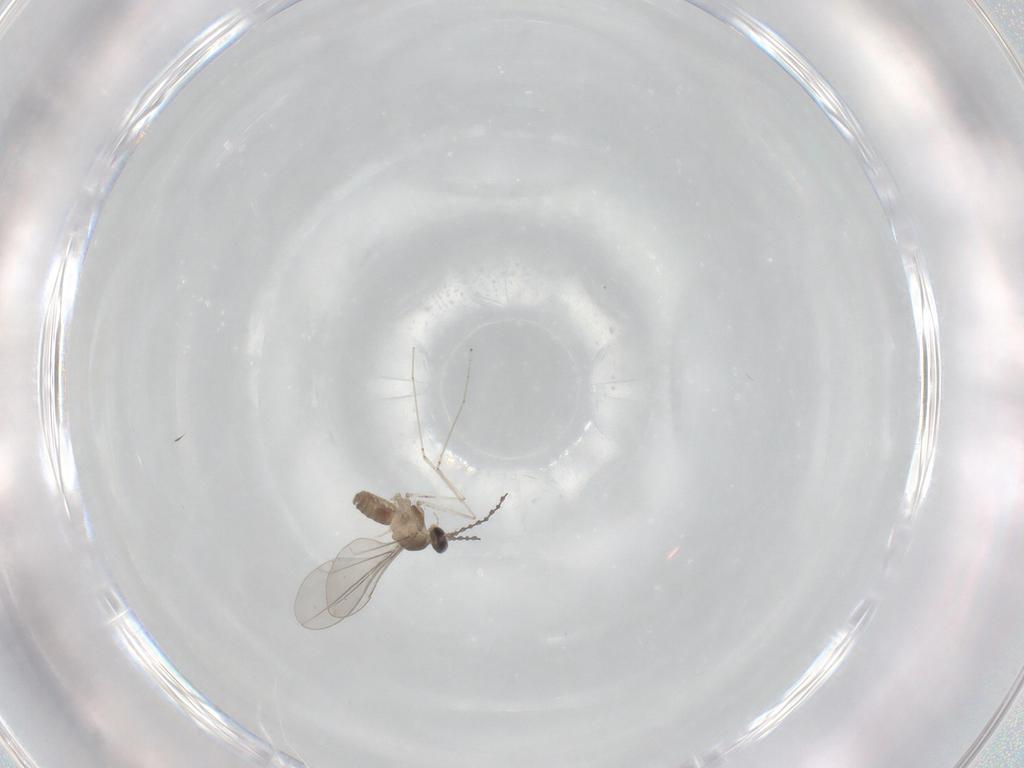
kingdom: Animalia
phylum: Arthropoda
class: Insecta
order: Diptera
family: Cecidomyiidae
